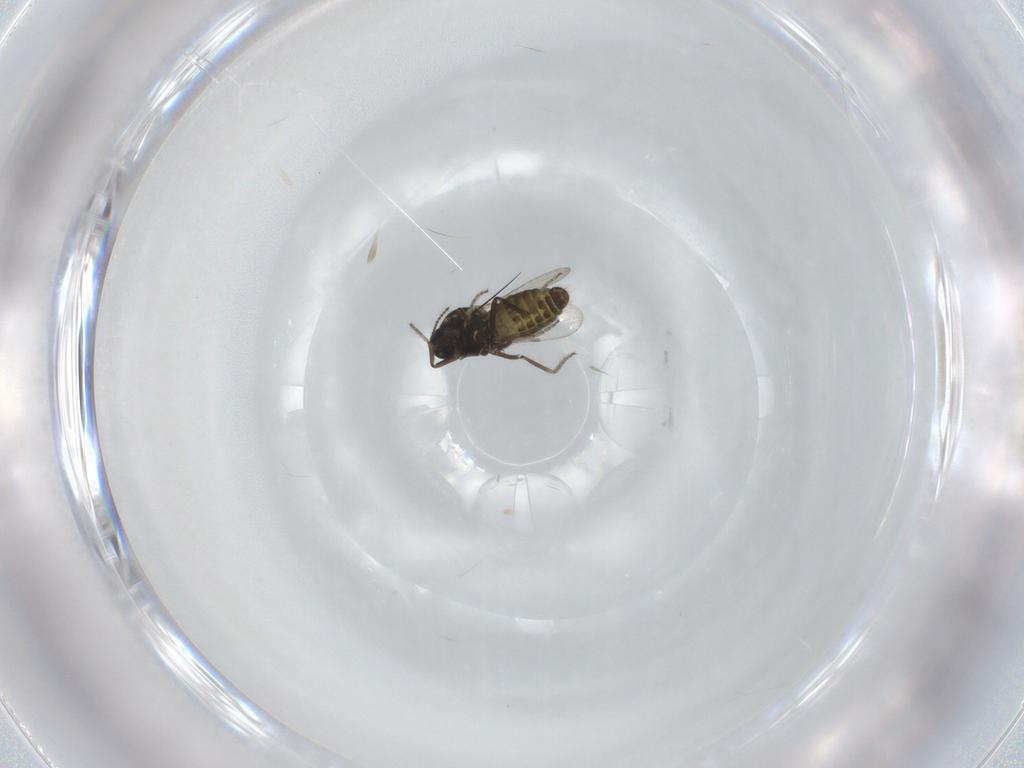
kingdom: Animalia
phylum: Arthropoda
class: Insecta
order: Diptera
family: Ceratopogonidae
